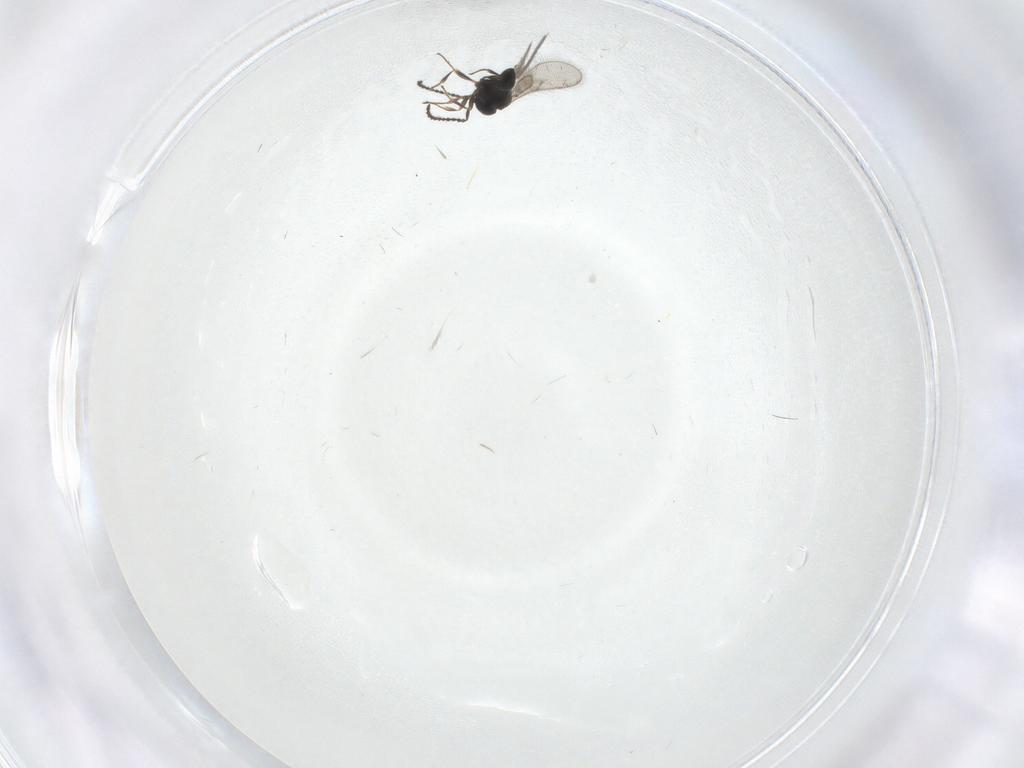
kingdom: Animalia
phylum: Arthropoda
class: Insecta
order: Hymenoptera
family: Scelionidae
